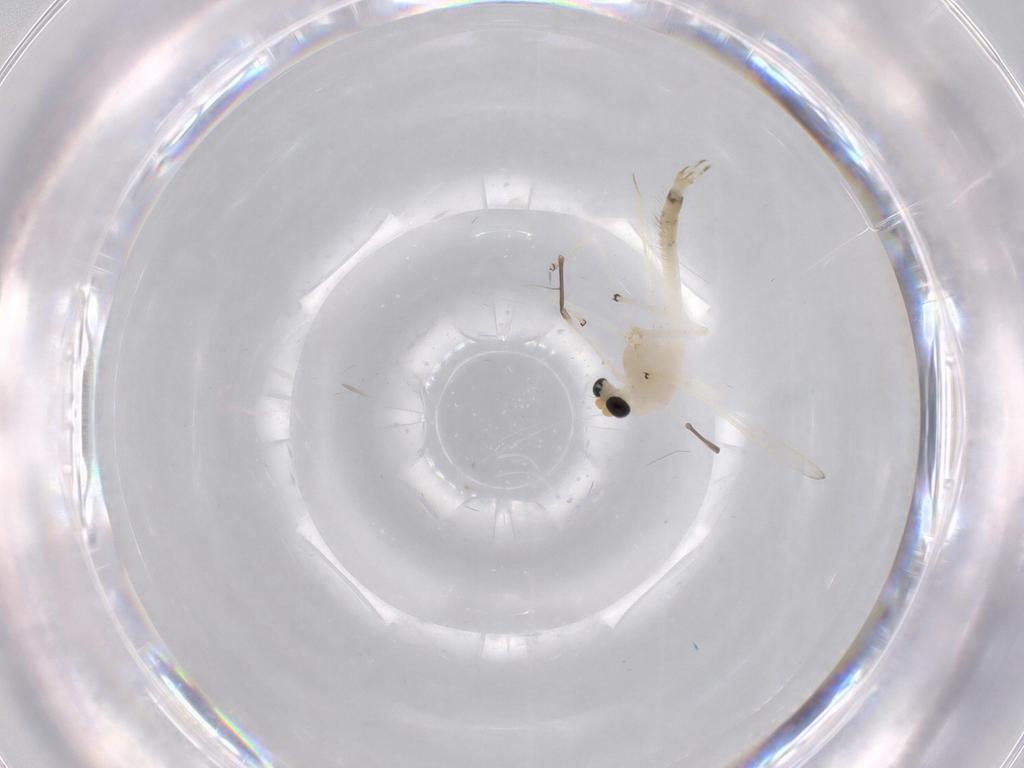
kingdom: Animalia
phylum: Arthropoda
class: Insecta
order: Diptera
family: Chironomidae
